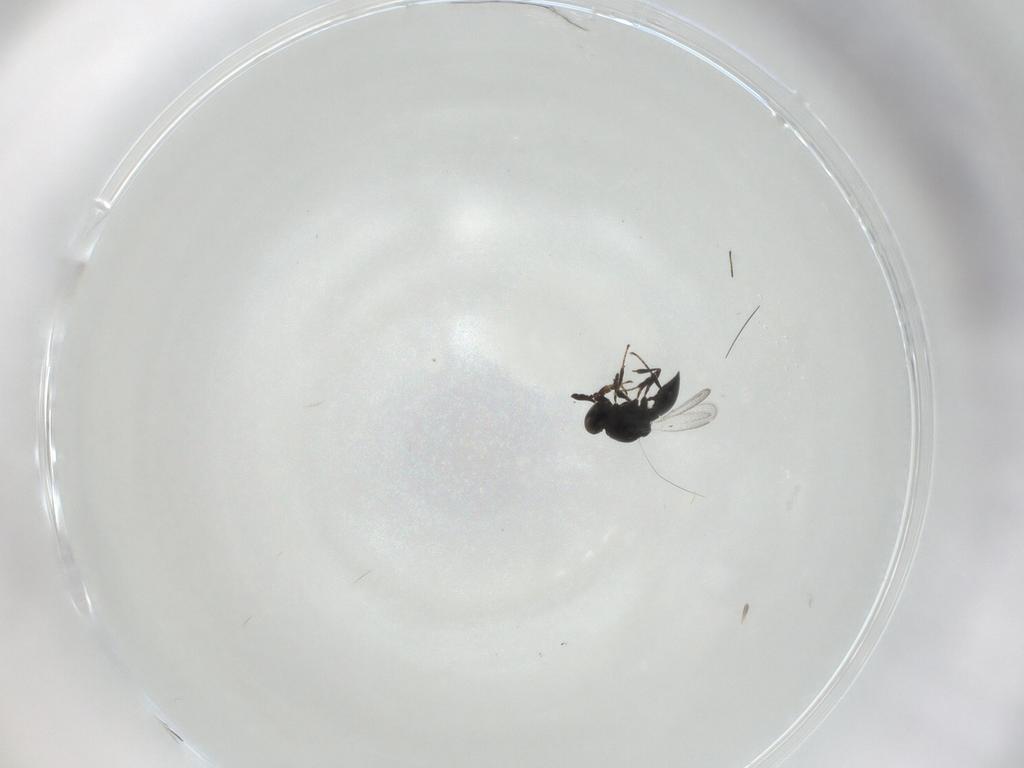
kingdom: Animalia
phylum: Arthropoda
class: Insecta
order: Hymenoptera
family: Platygastridae
